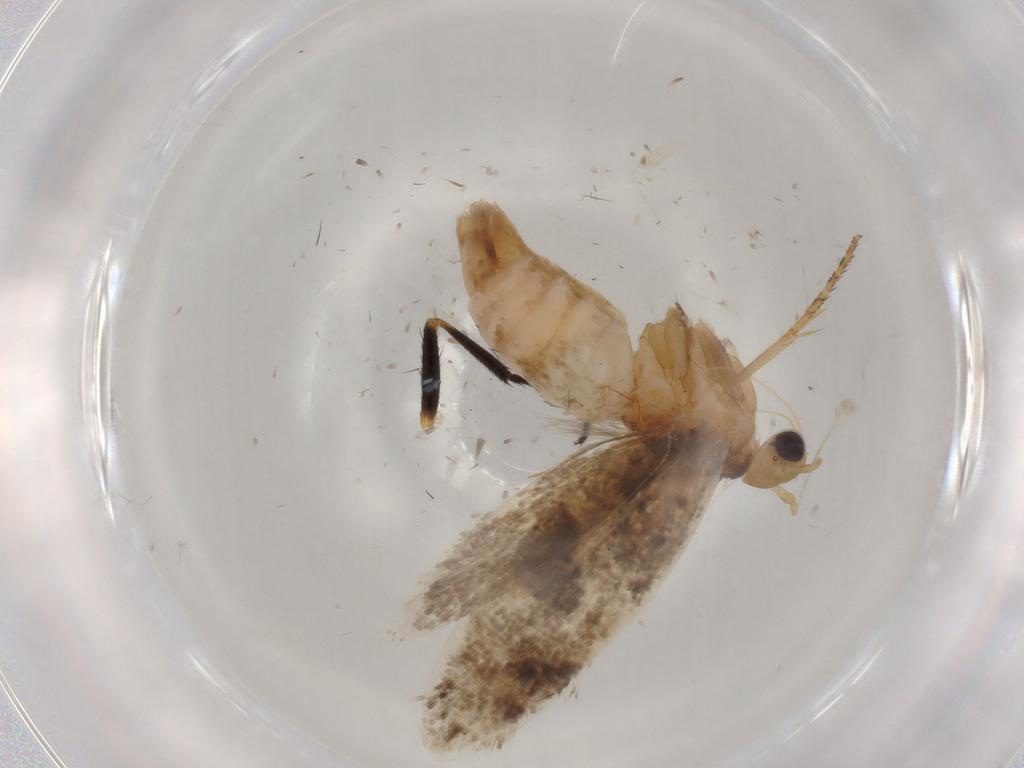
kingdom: Animalia
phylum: Arthropoda
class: Insecta
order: Lepidoptera
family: Plutellidae
